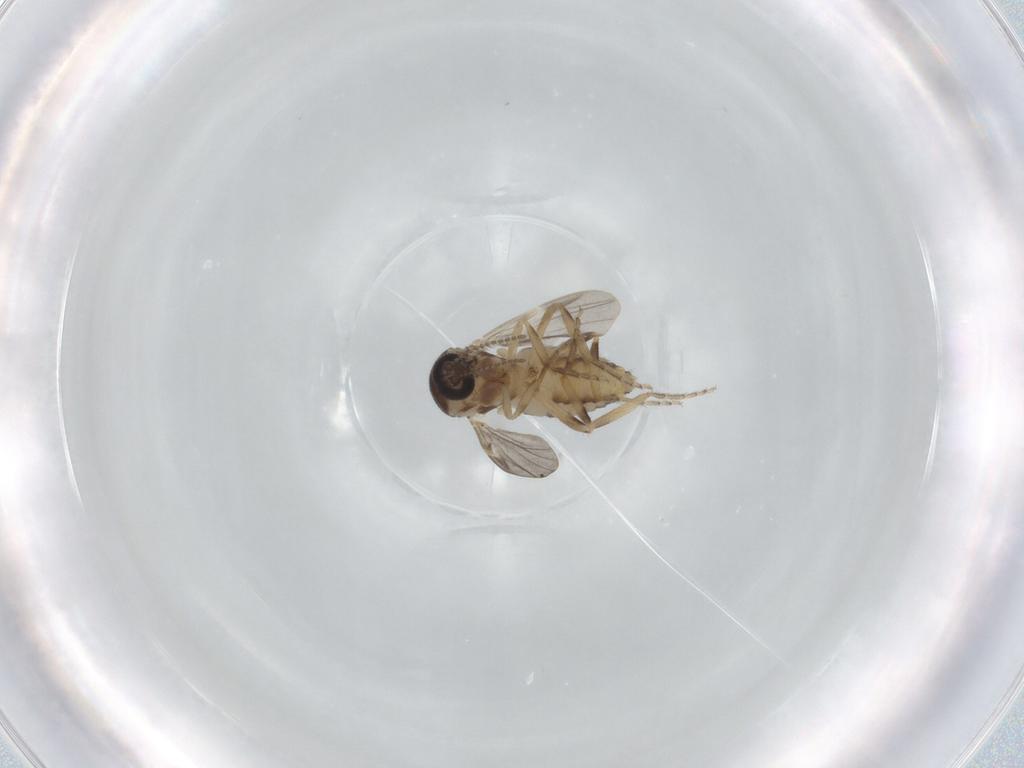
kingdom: Animalia
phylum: Arthropoda
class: Insecta
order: Diptera
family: Ceratopogonidae
